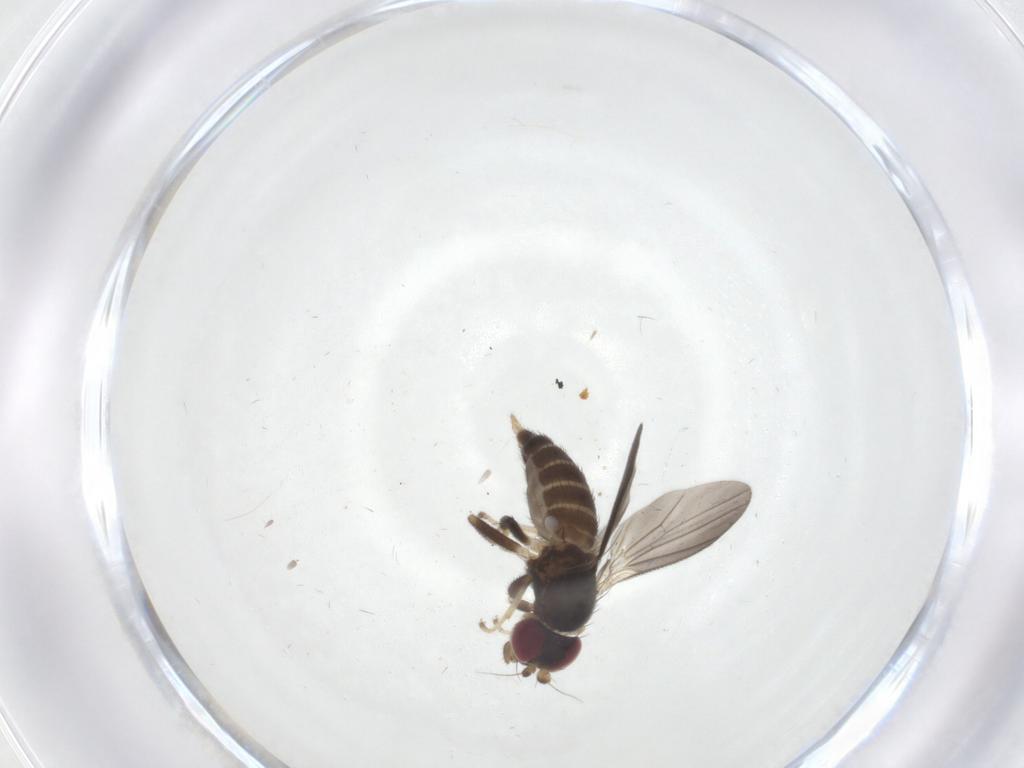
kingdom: Animalia
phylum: Arthropoda
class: Insecta
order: Diptera
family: Clusiidae
